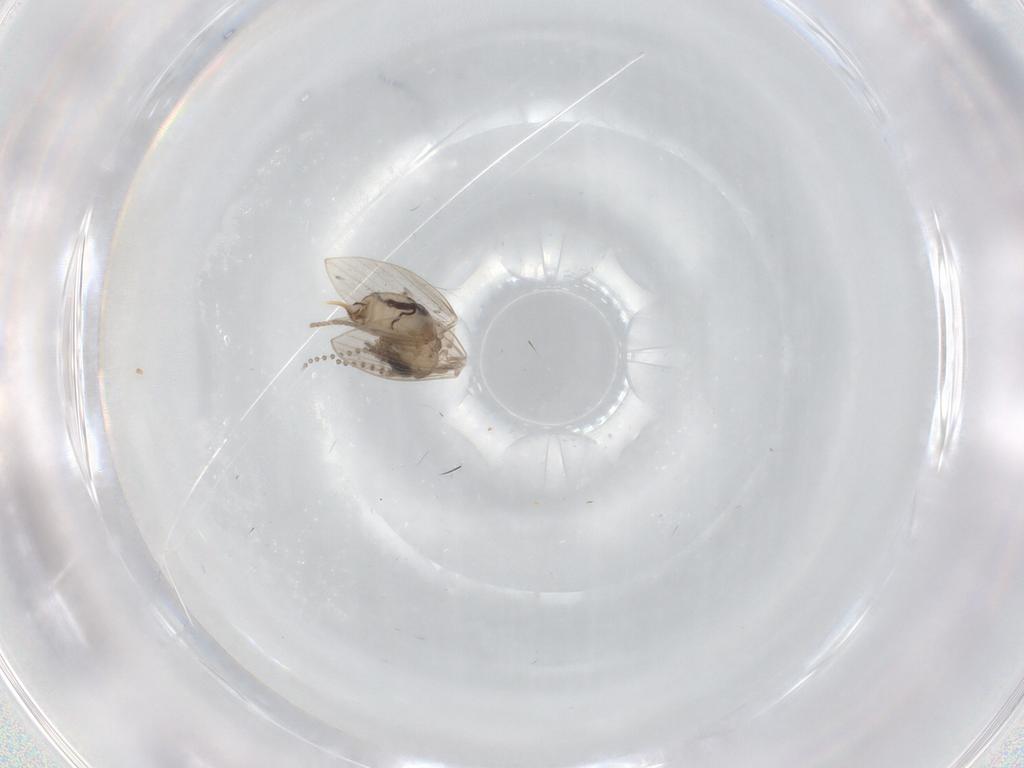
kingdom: Animalia
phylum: Arthropoda
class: Insecta
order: Diptera
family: Psychodidae
